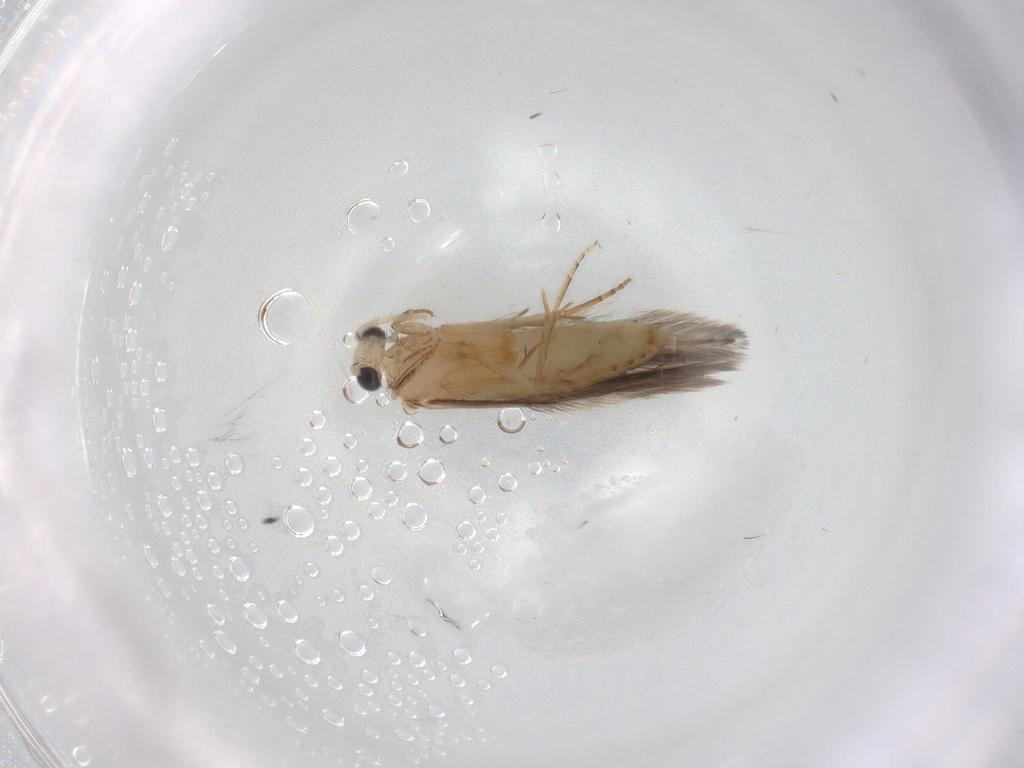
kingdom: Animalia
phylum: Arthropoda
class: Insecta
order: Trichoptera
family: Hydroptilidae
